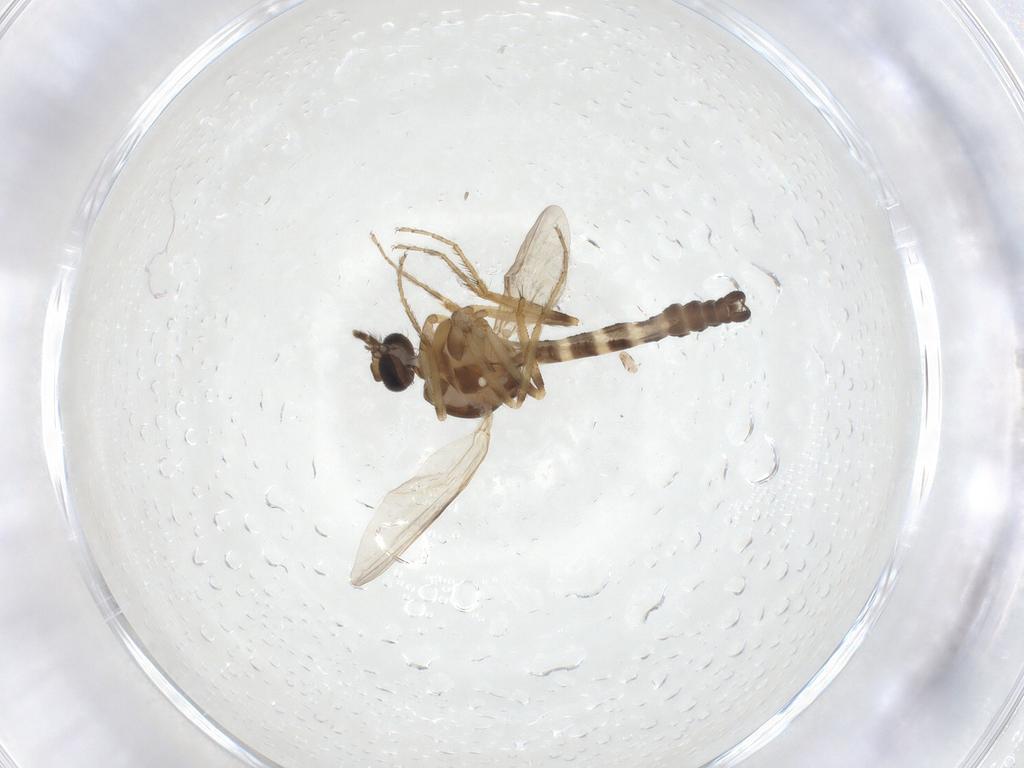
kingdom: Animalia
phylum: Arthropoda
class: Insecta
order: Diptera
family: Ceratopogonidae
